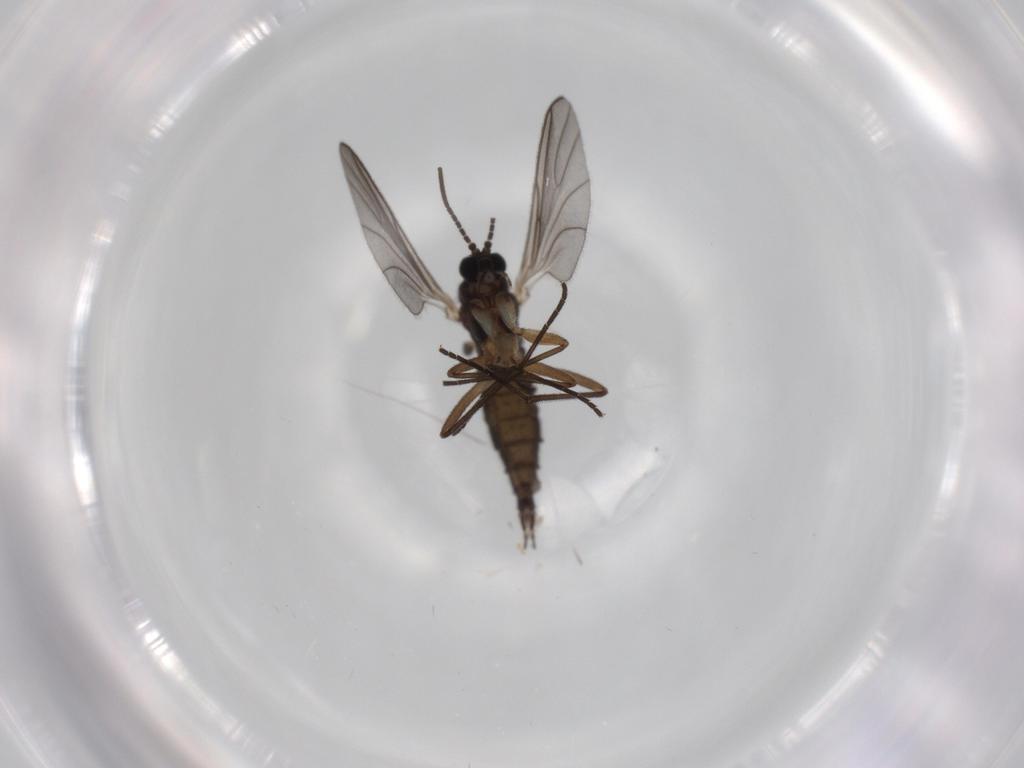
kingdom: Animalia
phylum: Arthropoda
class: Insecta
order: Diptera
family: Sciaridae
